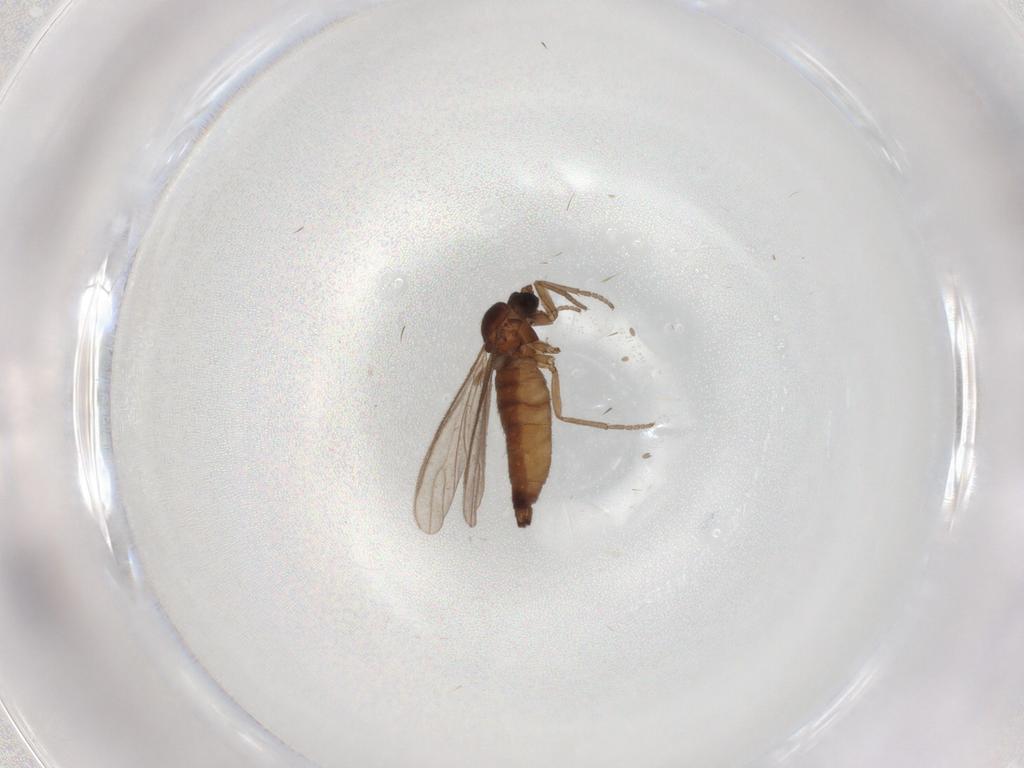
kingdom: Animalia
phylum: Arthropoda
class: Insecta
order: Diptera
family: Sciaridae
